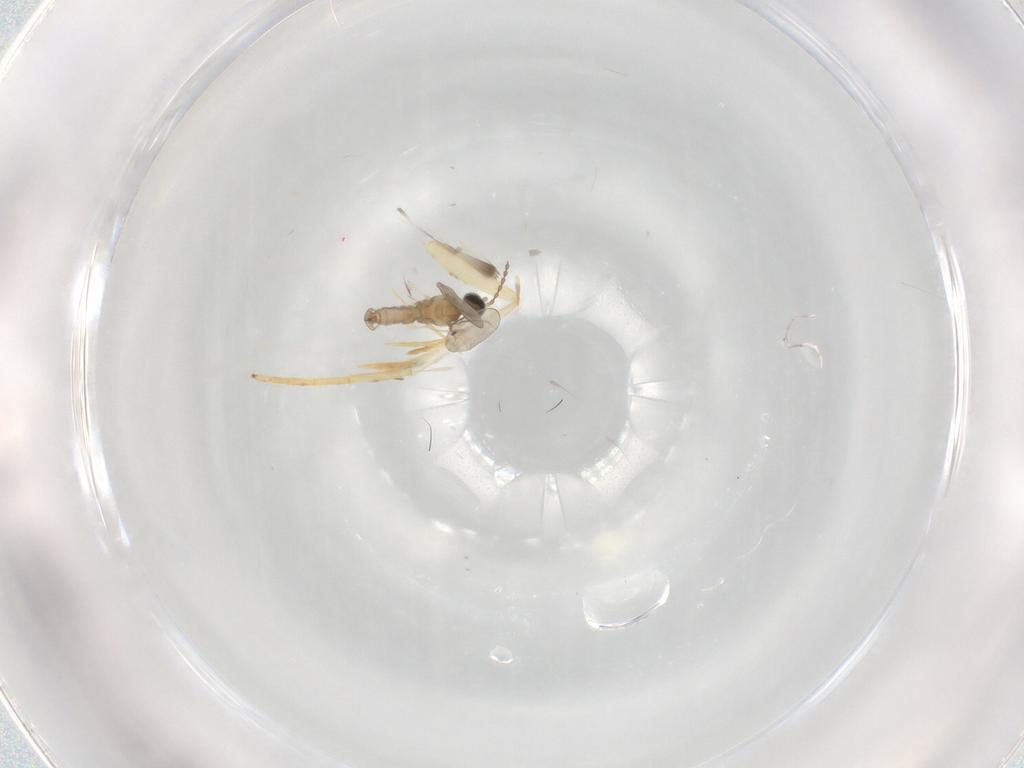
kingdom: Animalia
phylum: Arthropoda
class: Insecta
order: Diptera
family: Cecidomyiidae
